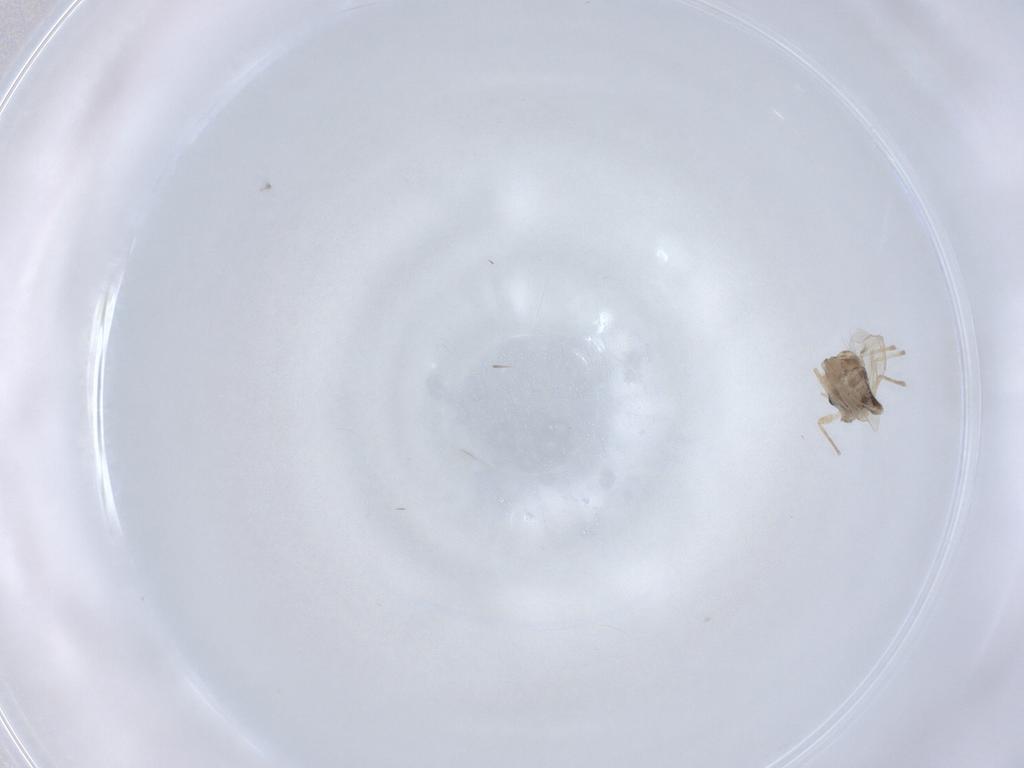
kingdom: Animalia
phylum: Arthropoda
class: Insecta
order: Diptera
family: Chironomidae
